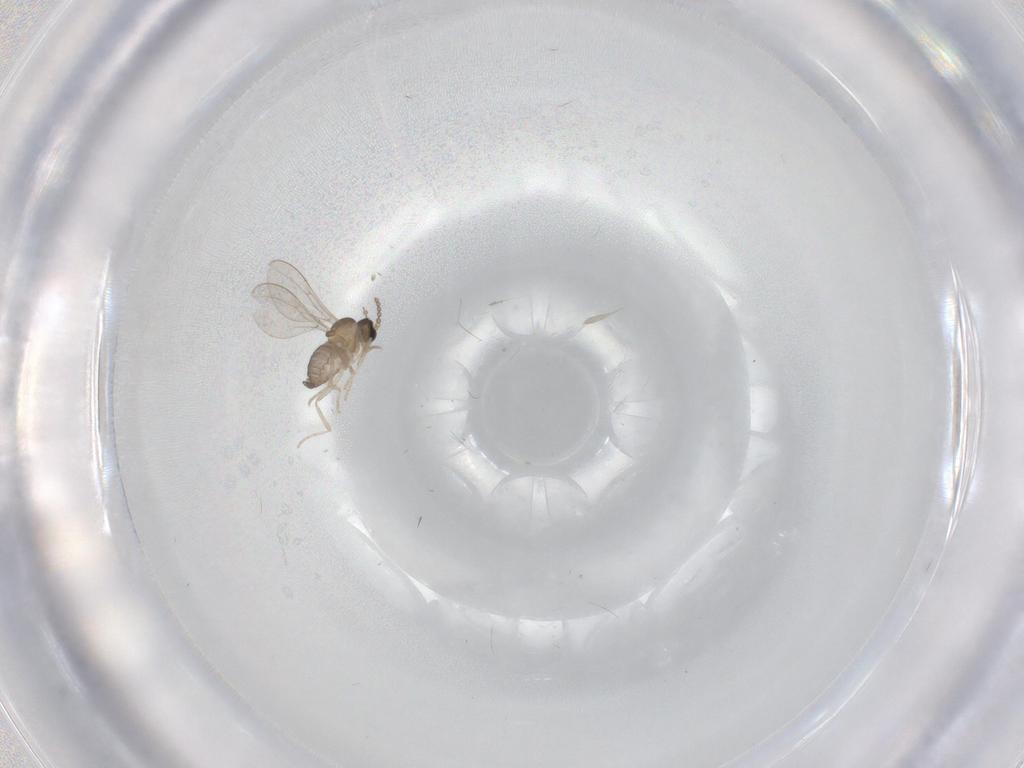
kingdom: Animalia
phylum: Arthropoda
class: Insecta
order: Diptera
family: Cecidomyiidae
